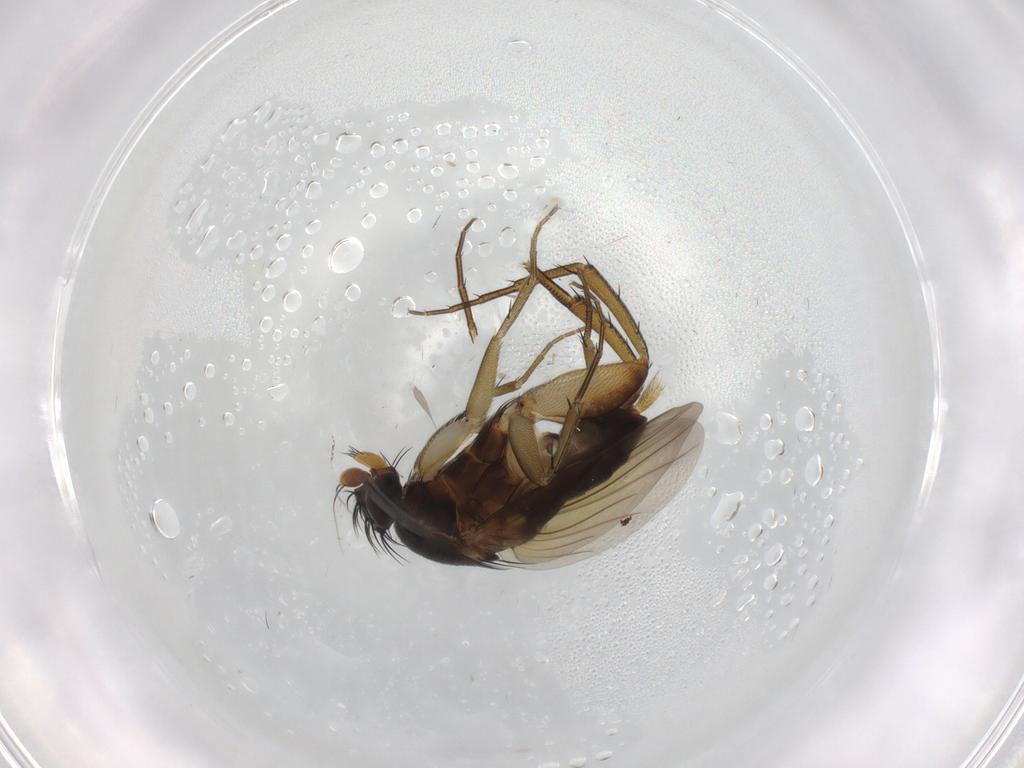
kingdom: Animalia
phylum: Arthropoda
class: Insecta
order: Diptera
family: Phoridae
